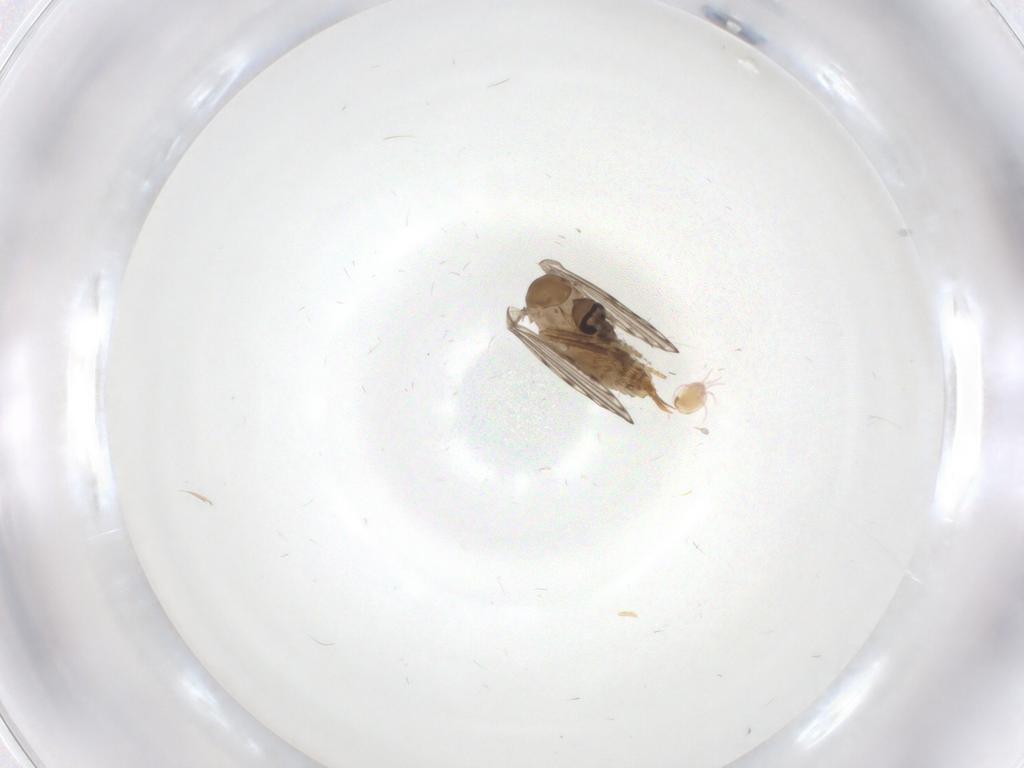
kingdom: Animalia
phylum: Arthropoda
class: Insecta
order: Diptera
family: Psychodidae
